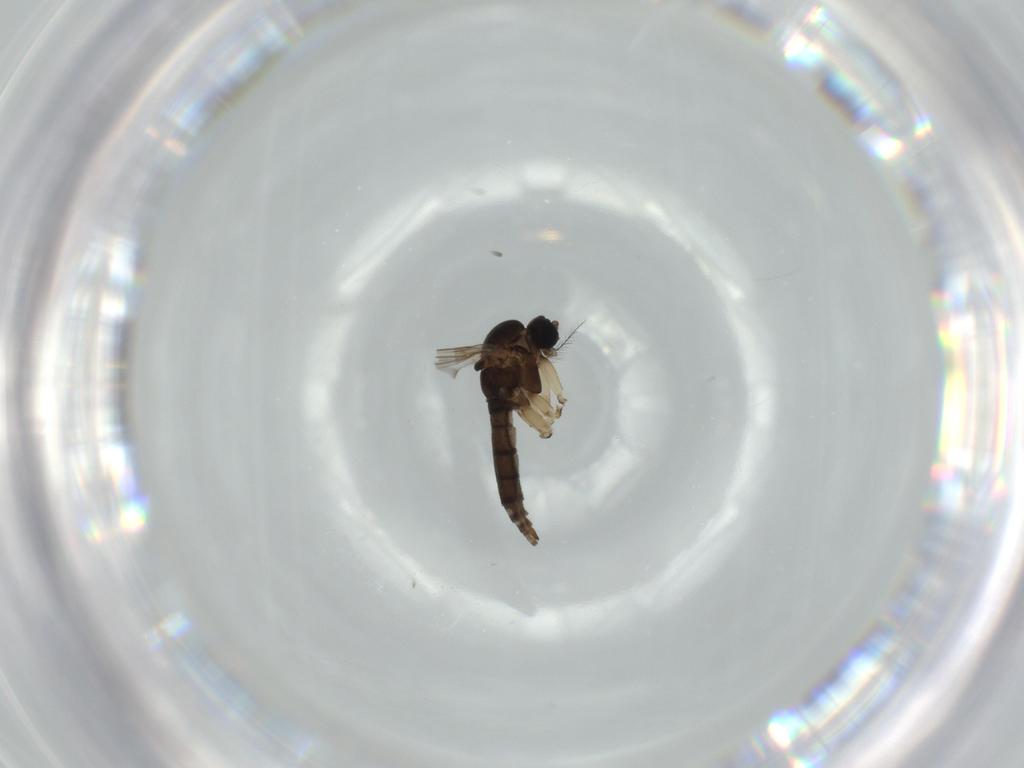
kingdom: Animalia
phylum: Arthropoda
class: Insecta
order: Diptera
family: Sciaridae
